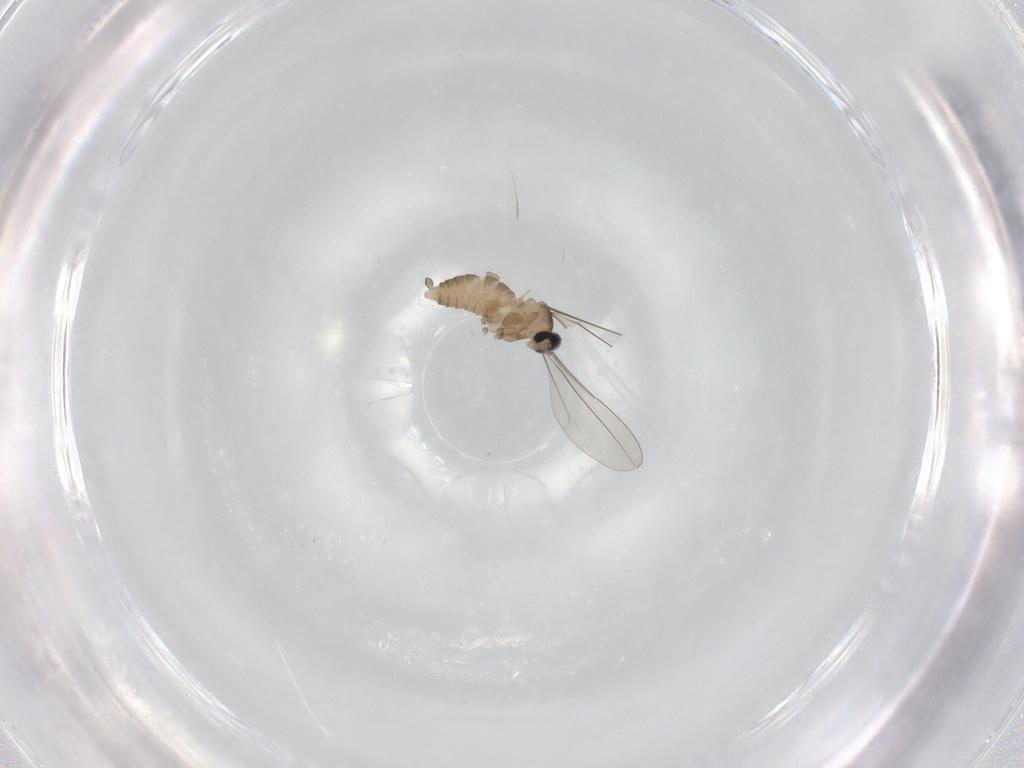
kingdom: Animalia
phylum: Arthropoda
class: Insecta
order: Diptera
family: Cecidomyiidae
